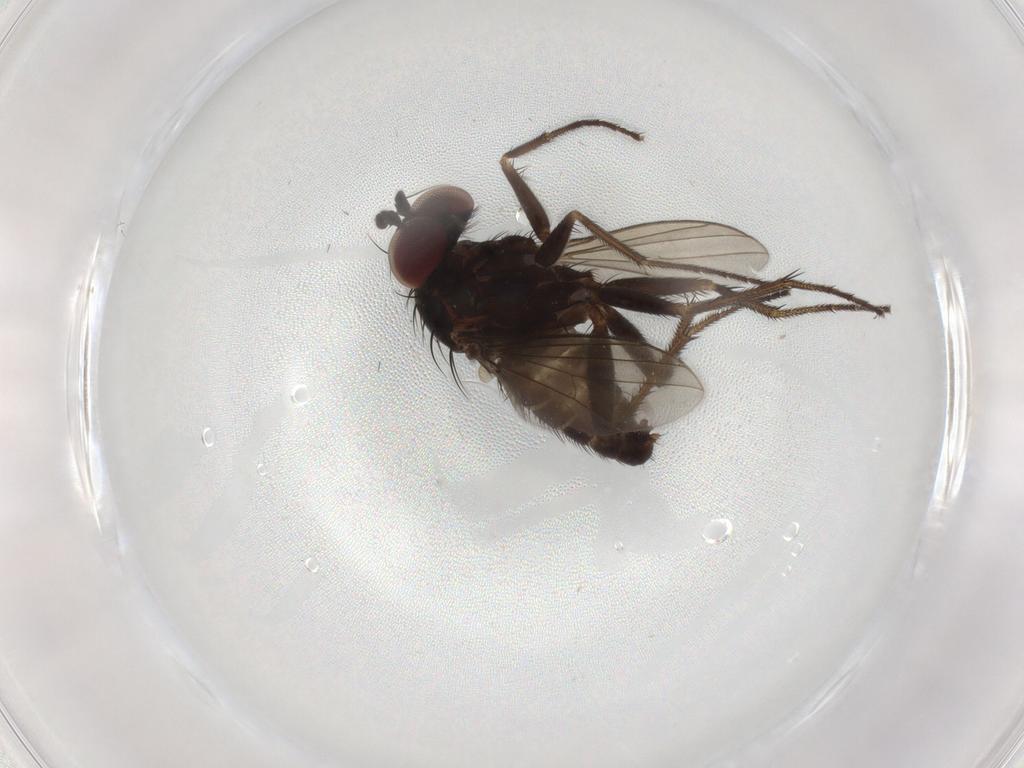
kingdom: Animalia
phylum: Arthropoda
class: Insecta
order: Diptera
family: Dolichopodidae
